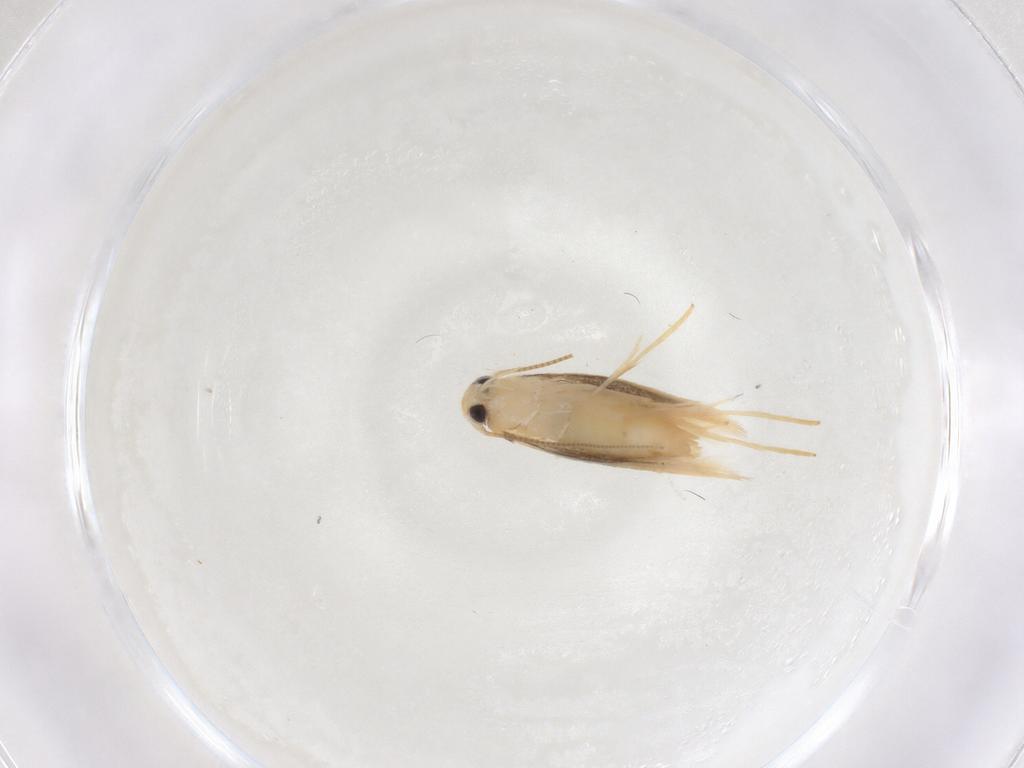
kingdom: Animalia
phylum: Arthropoda
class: Insecta
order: Lepidoptera
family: Geometridae
